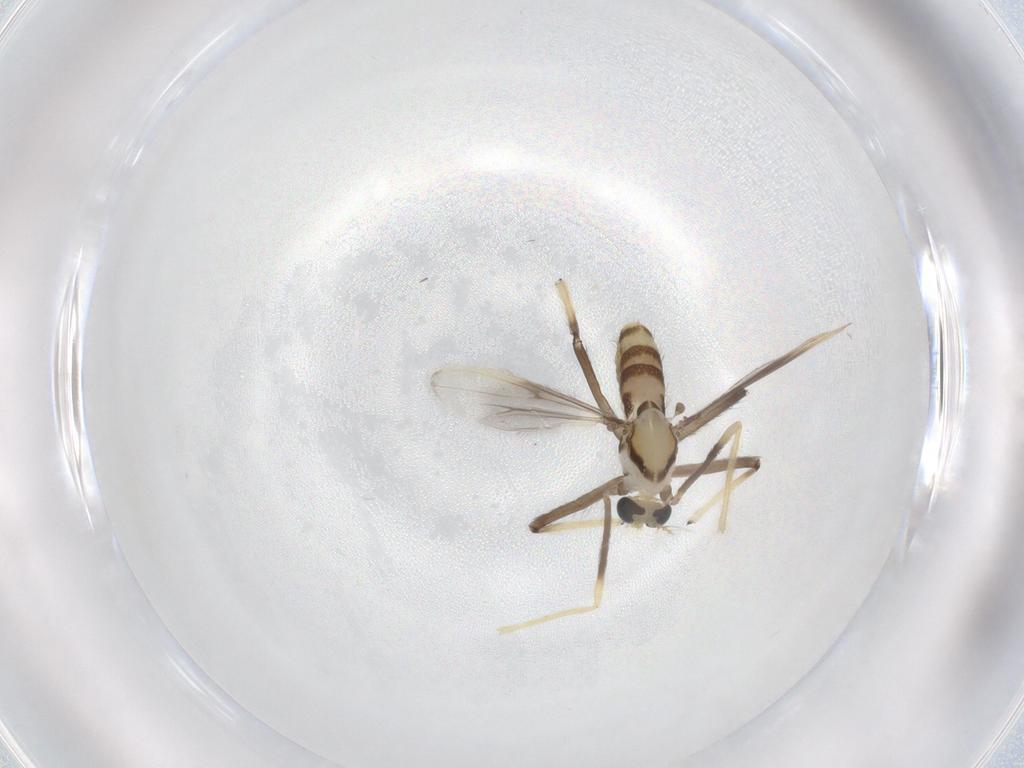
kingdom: Animalia
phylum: Arthropoda
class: Insecta
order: Diptera
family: Chironomidae
